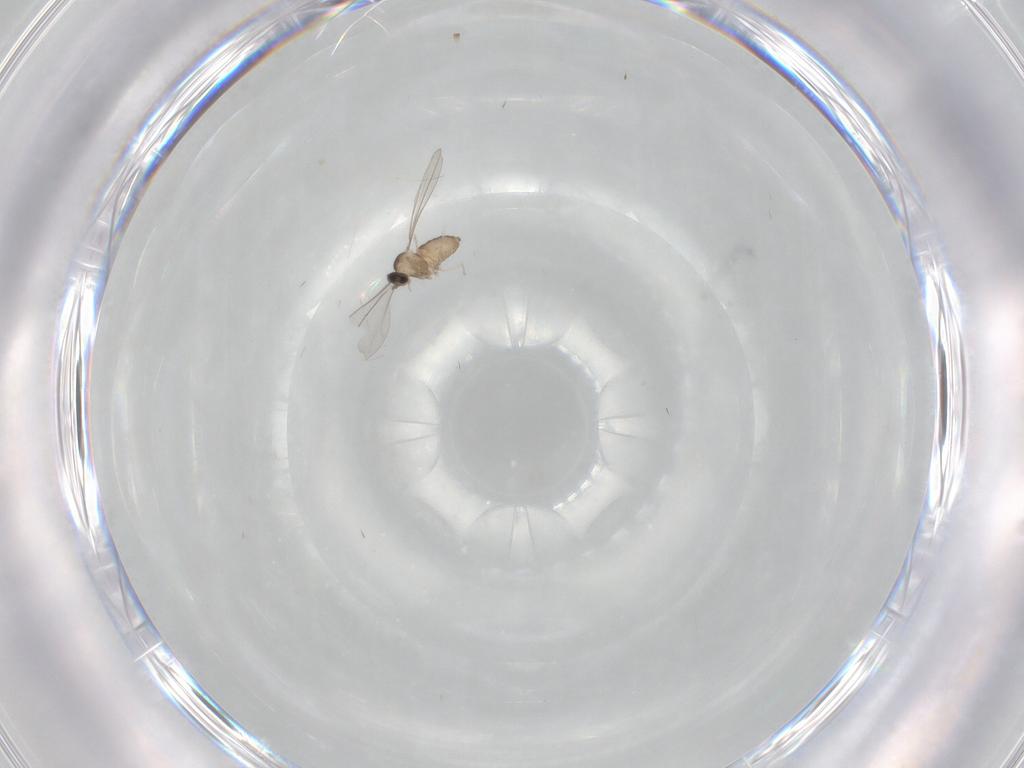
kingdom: Animalia
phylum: Arthropoda
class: Insecta
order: Diptera
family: Cecidomyiidae
